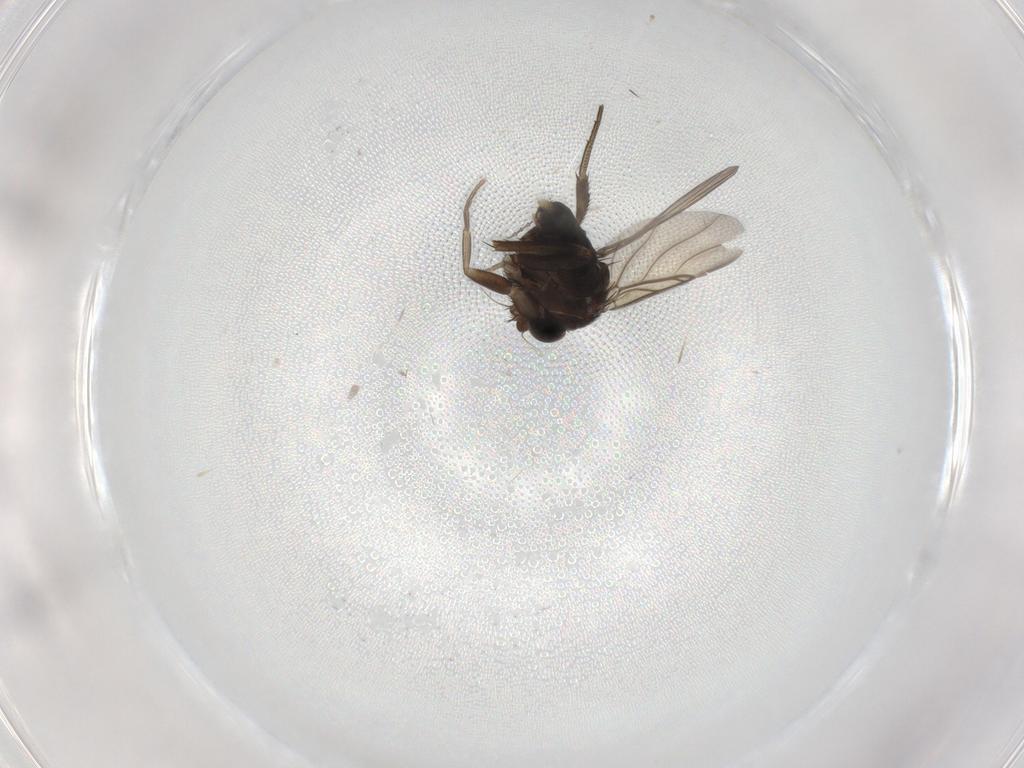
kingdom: Animalia
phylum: Arthropoda
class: Insecta
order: Diptera
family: Cecidomyiidae
